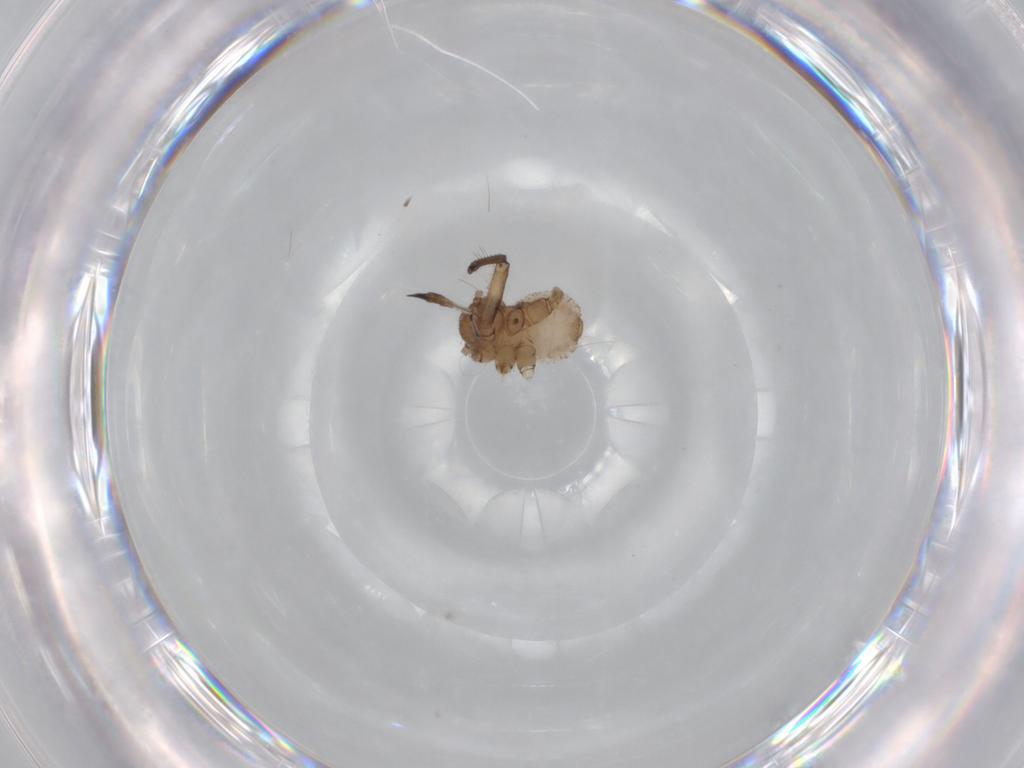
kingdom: Animalia
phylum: Arthropoda
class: Insecta
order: Hemiptera
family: Aphididae
